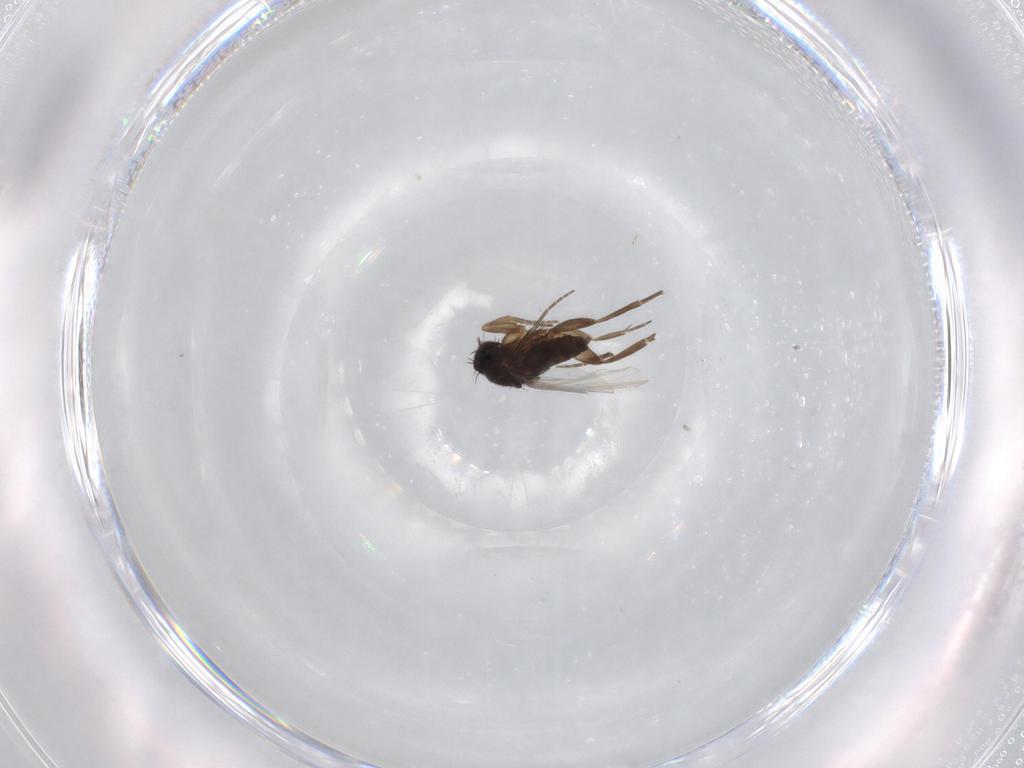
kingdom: Animalia
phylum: Arthropoda
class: Insecta
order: Diptera
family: Phoridae
